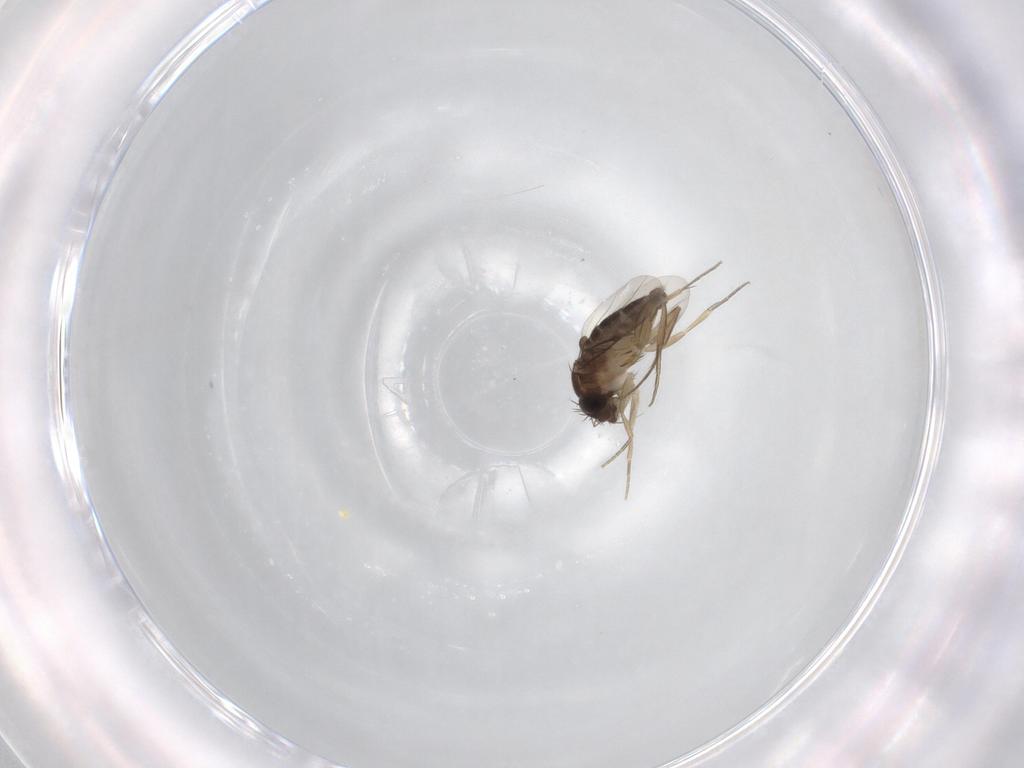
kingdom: Animalia
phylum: Arthropoda
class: Insecta
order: Diptera
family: Phoridae
